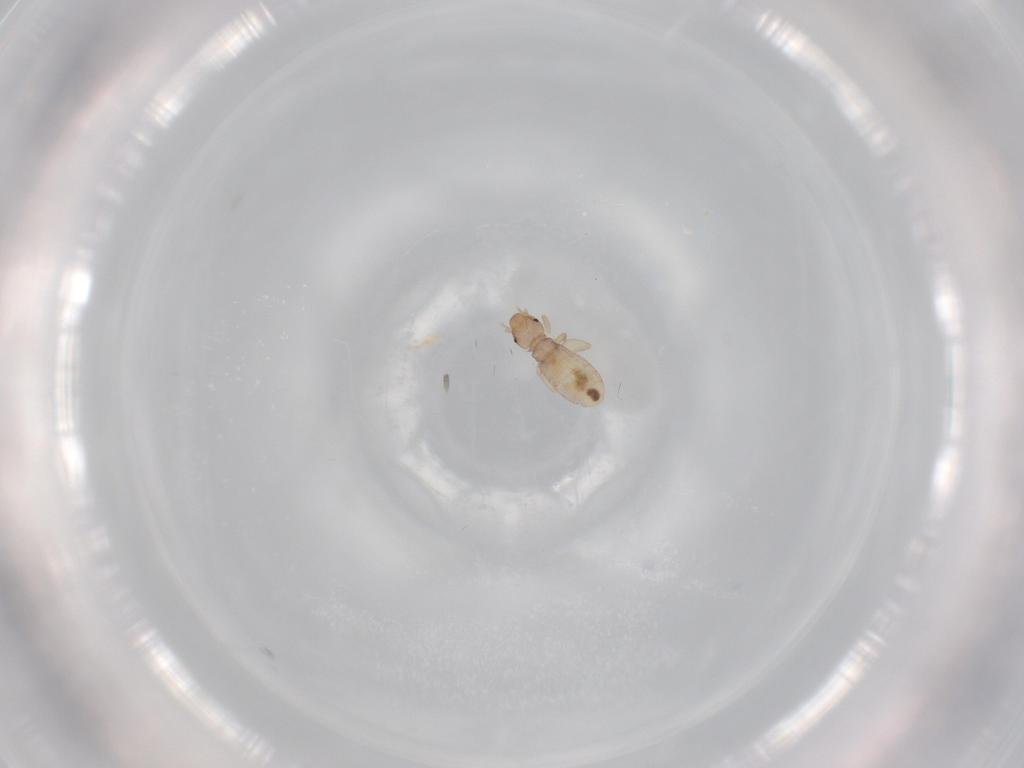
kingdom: Animalia
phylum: Arthropoda
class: Insecta
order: Psocodea
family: Liposcelididae
